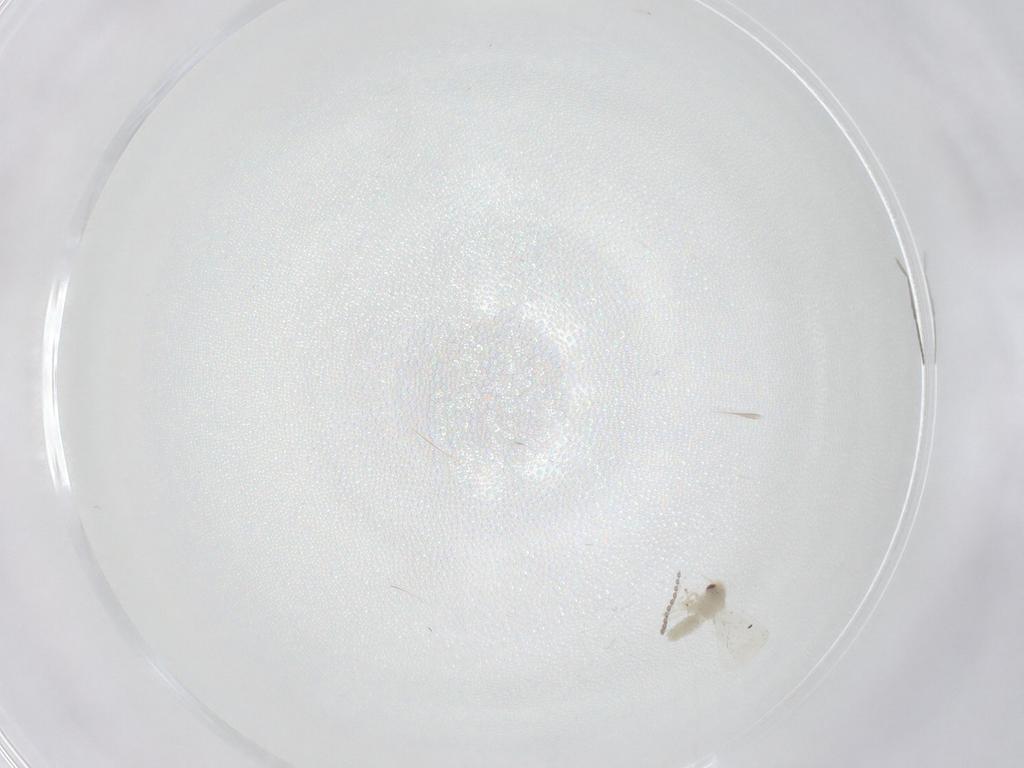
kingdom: Animalia
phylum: Arthropoda
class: Insecta
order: Hemiptera
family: Aleyrodidae
